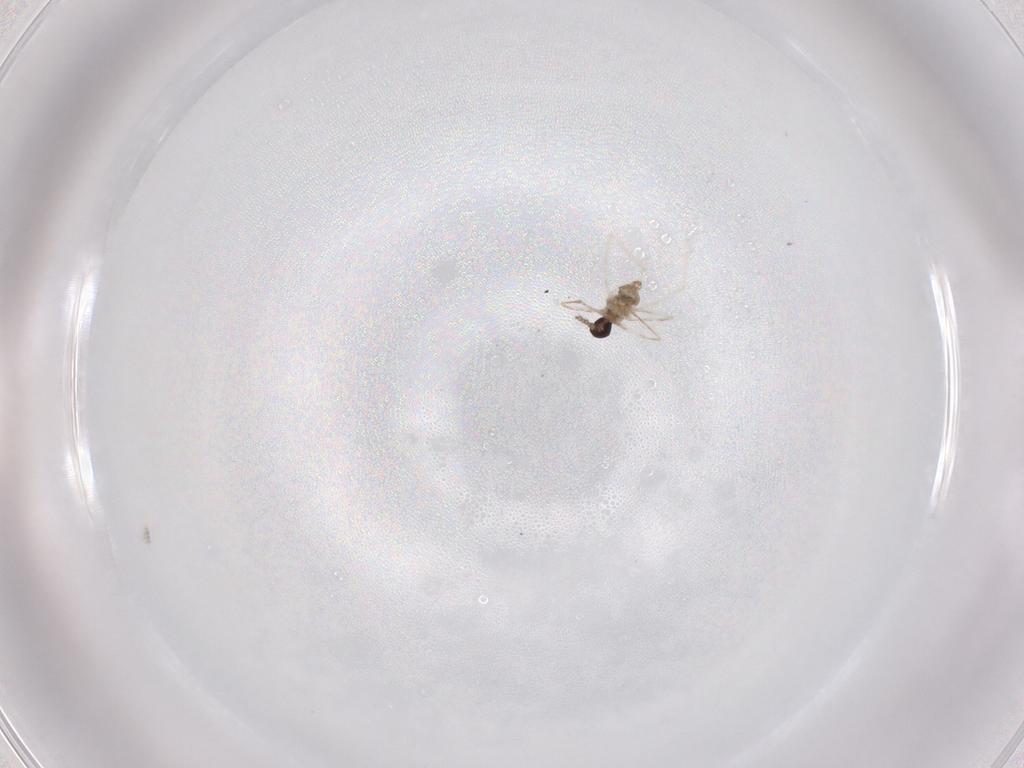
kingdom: Animalia
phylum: Arthropoda
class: Insecta
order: Diptera
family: Cecidomyiidae
